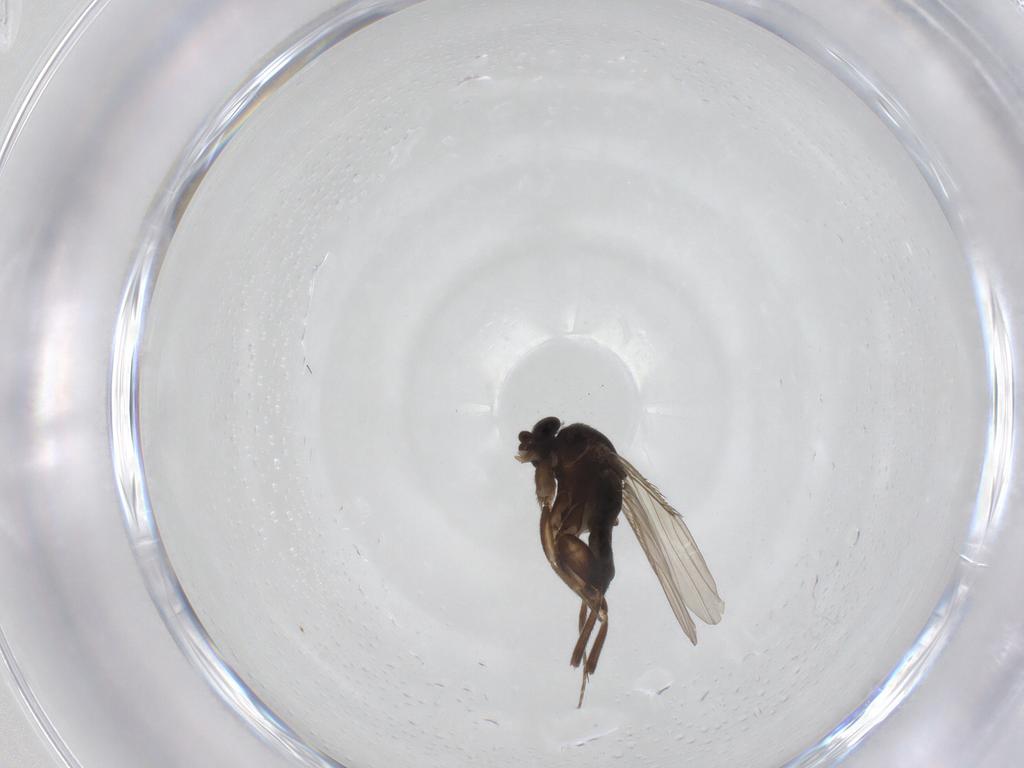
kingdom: Animalia
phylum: Arthropoda
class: Insecta
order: Diptera
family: Phoridae
